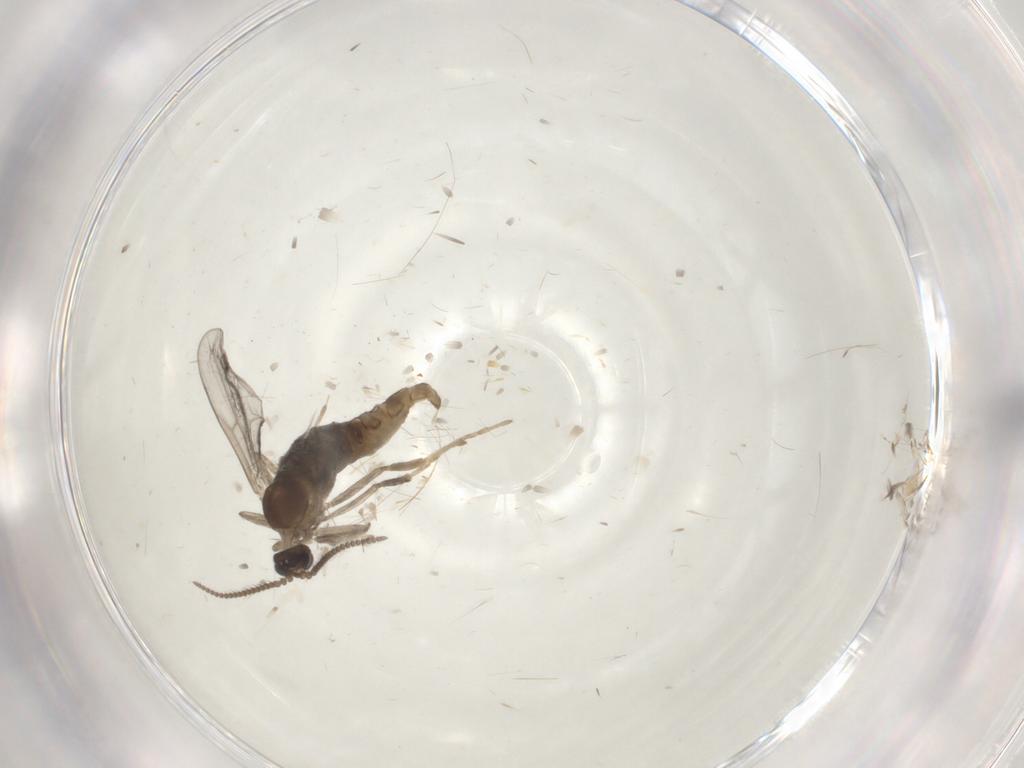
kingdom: Animalia
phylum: Arthropoda
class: Insecta
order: Diptera
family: Cecidomyiidae
